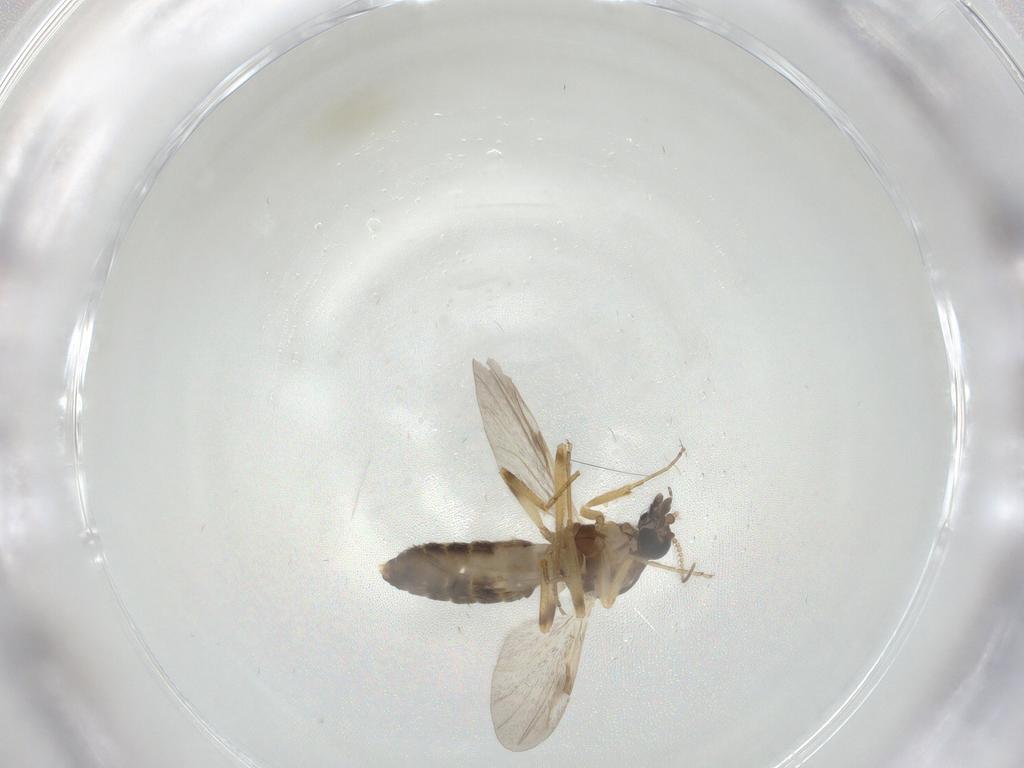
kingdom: Animalia
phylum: Arthropoda
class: Insecta
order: Diptera
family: Ceratopogonidae
